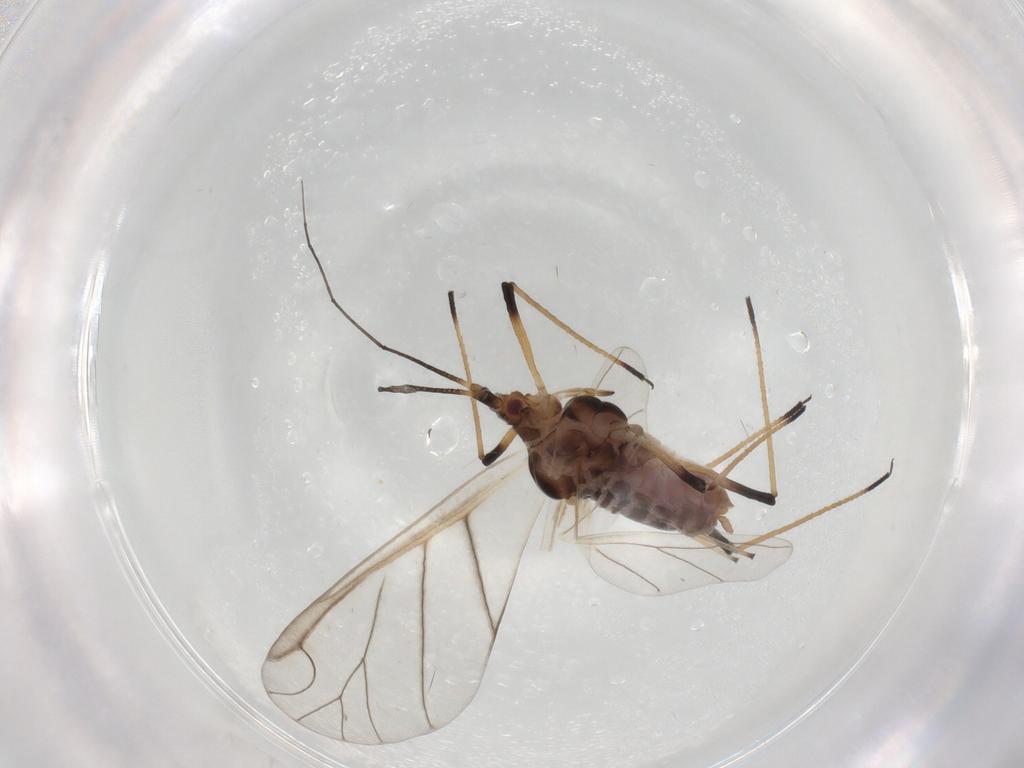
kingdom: Animalia
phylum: Arthropoda
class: Insecta
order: Hemiptera
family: Aphididae
